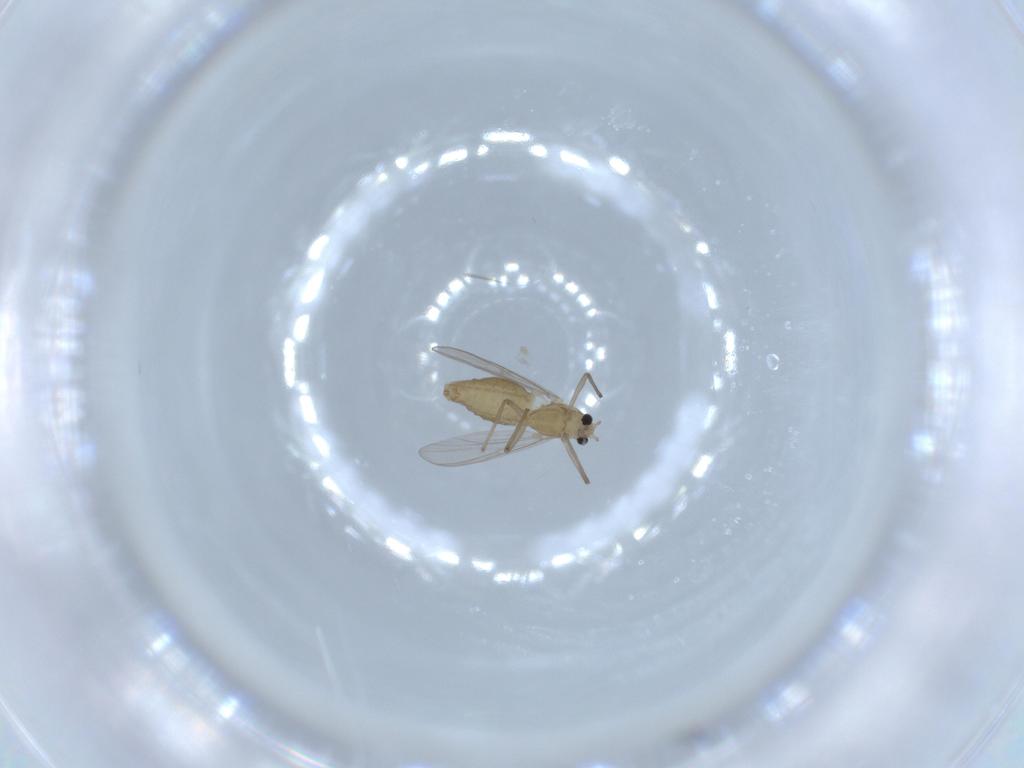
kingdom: Animalia
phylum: Arthropoda
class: Insecta
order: Diptera
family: Chironomidae
